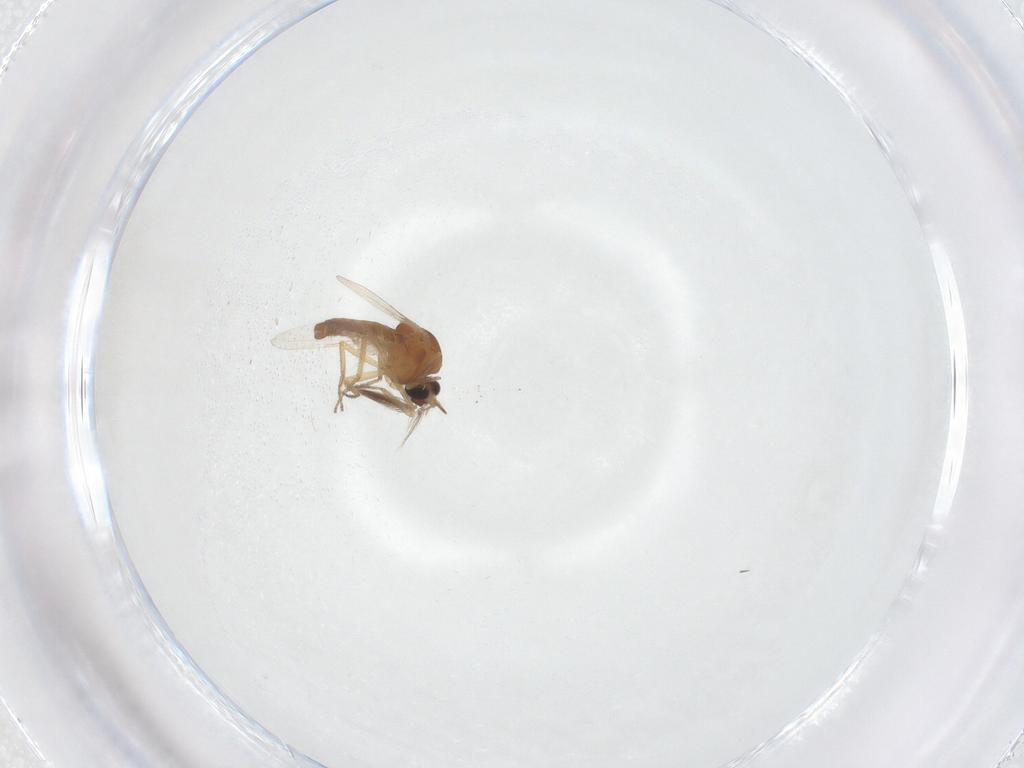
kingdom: Animalia
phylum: Arthropoda
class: Insecta
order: Diptera
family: Ceratopogonidae
